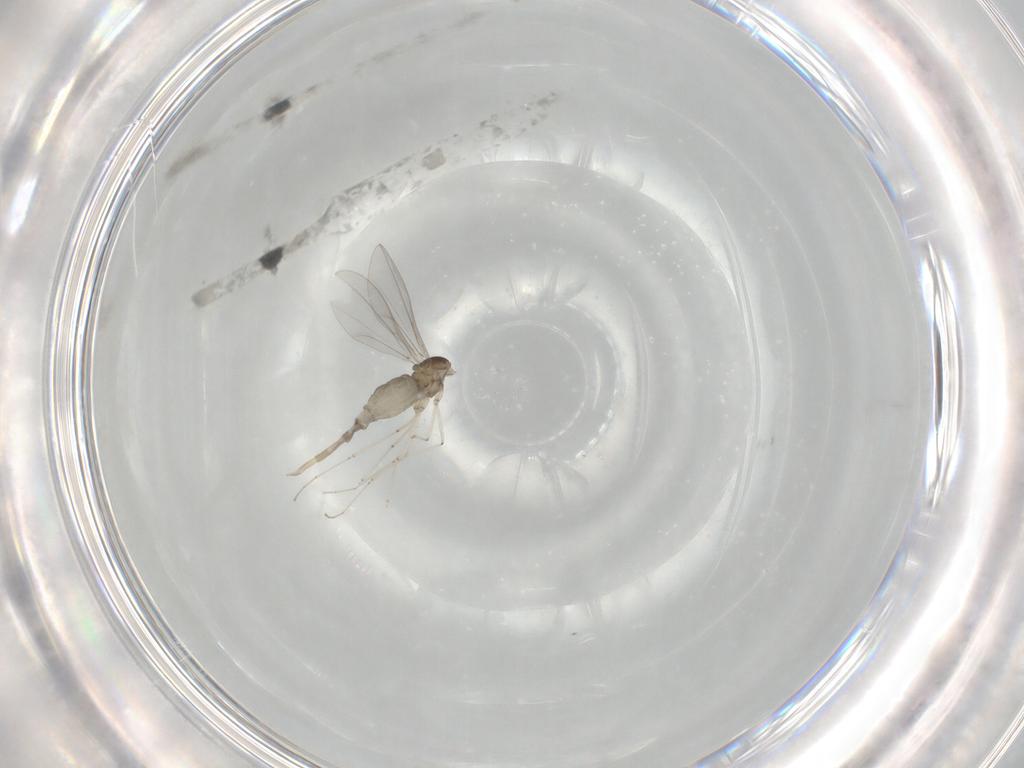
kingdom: Animalia
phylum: Arthropoda
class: Insecta
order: Diptera
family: Cecidomyiidae
